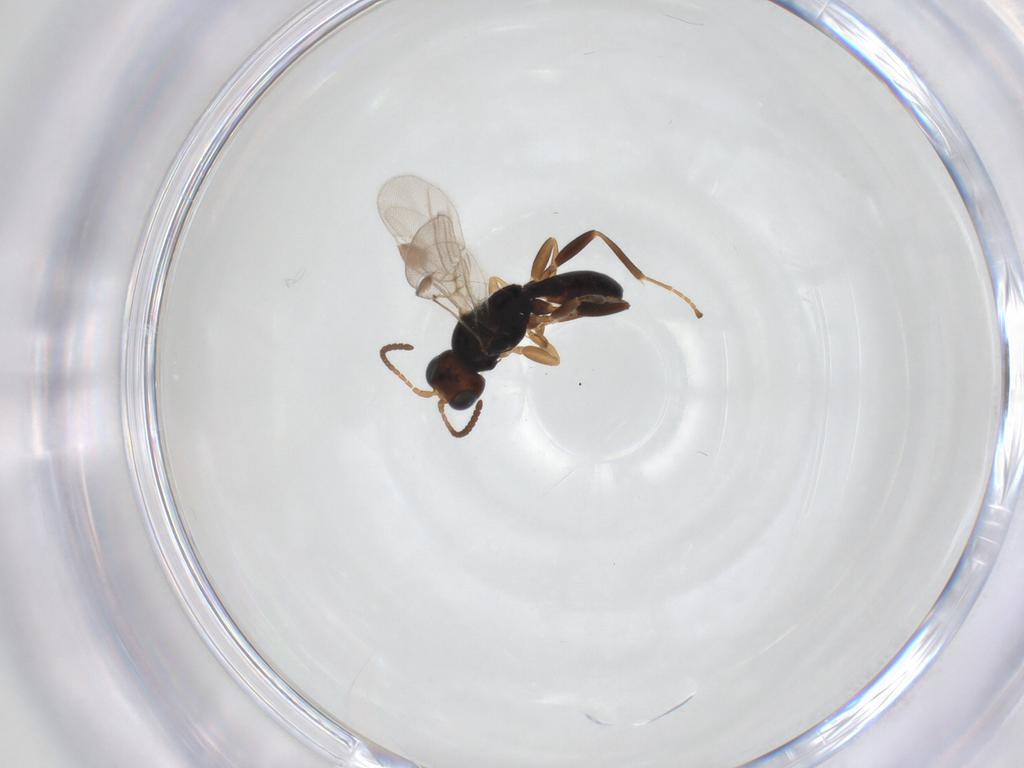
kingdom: Animalia
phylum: Arthropoda
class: Insecta
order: Hymenoptera
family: Braconidae
